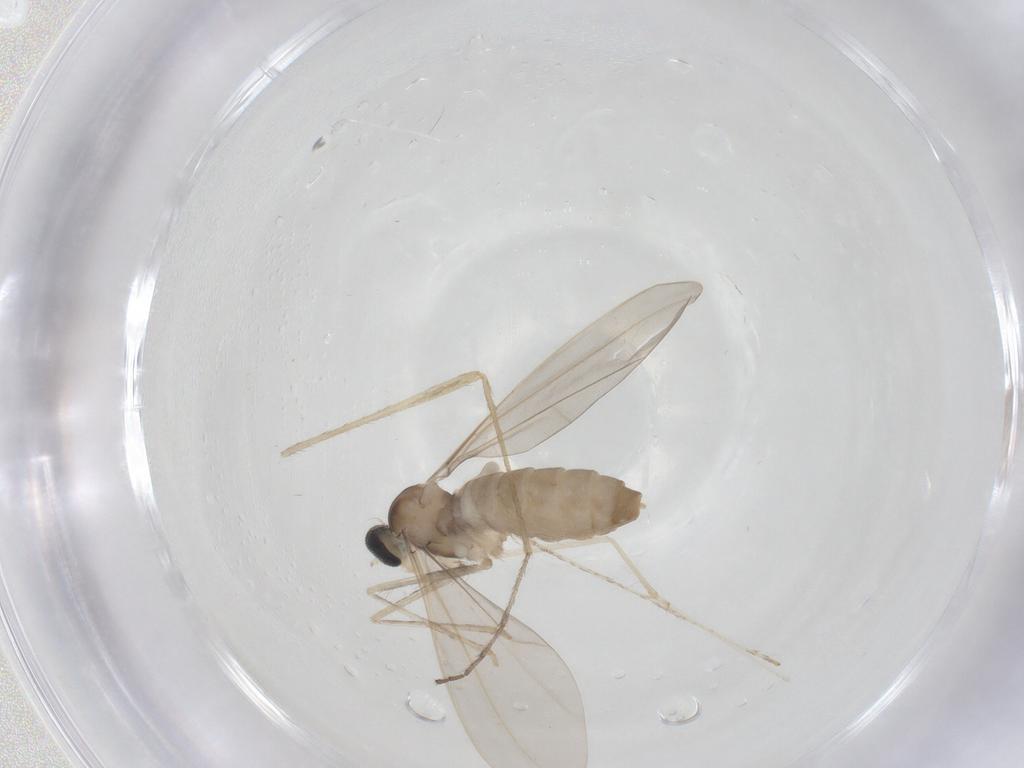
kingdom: Animalia
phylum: Arthropoda
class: Insecta
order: Diptera
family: Cecidomyiidae
